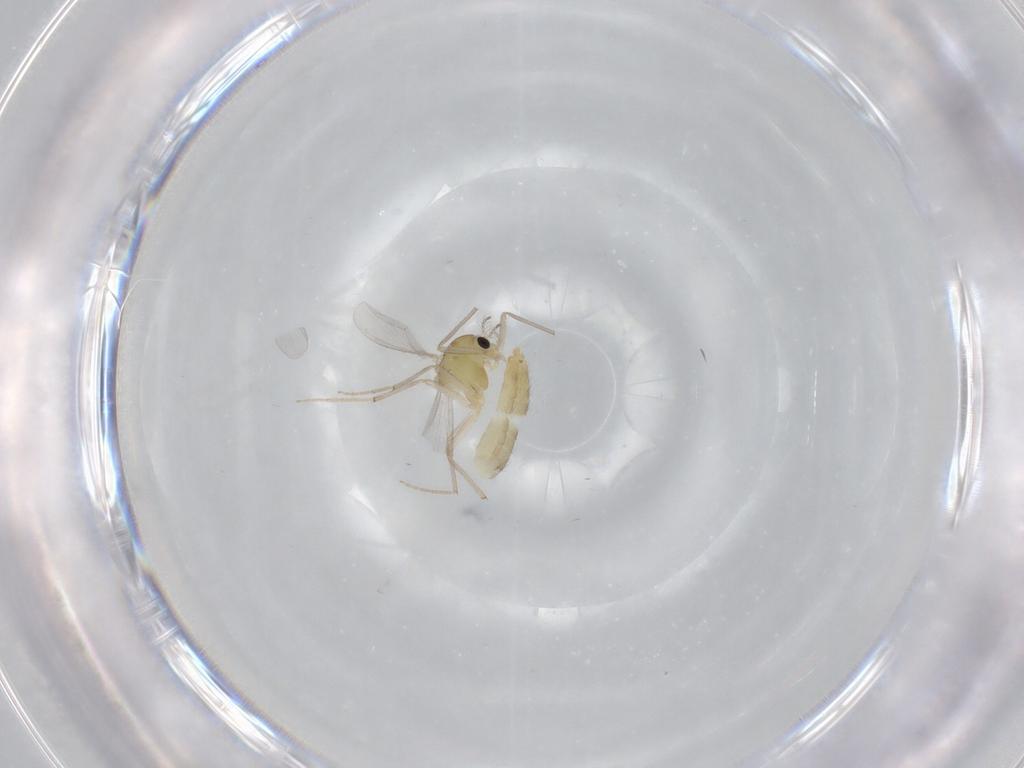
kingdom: Animalia
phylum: Arthropoda
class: Insecta
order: Diptera
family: Chironomidae
